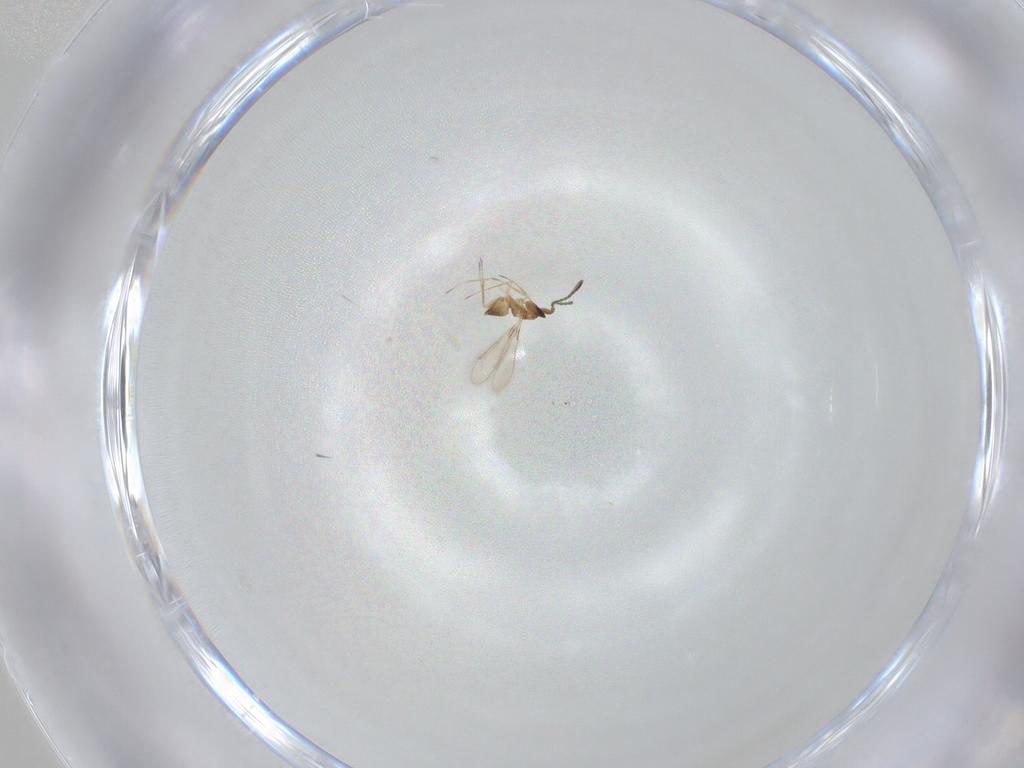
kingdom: Animalia
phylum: Arthropoda
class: Insecta
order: Hymenoptera
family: Mymaridae
